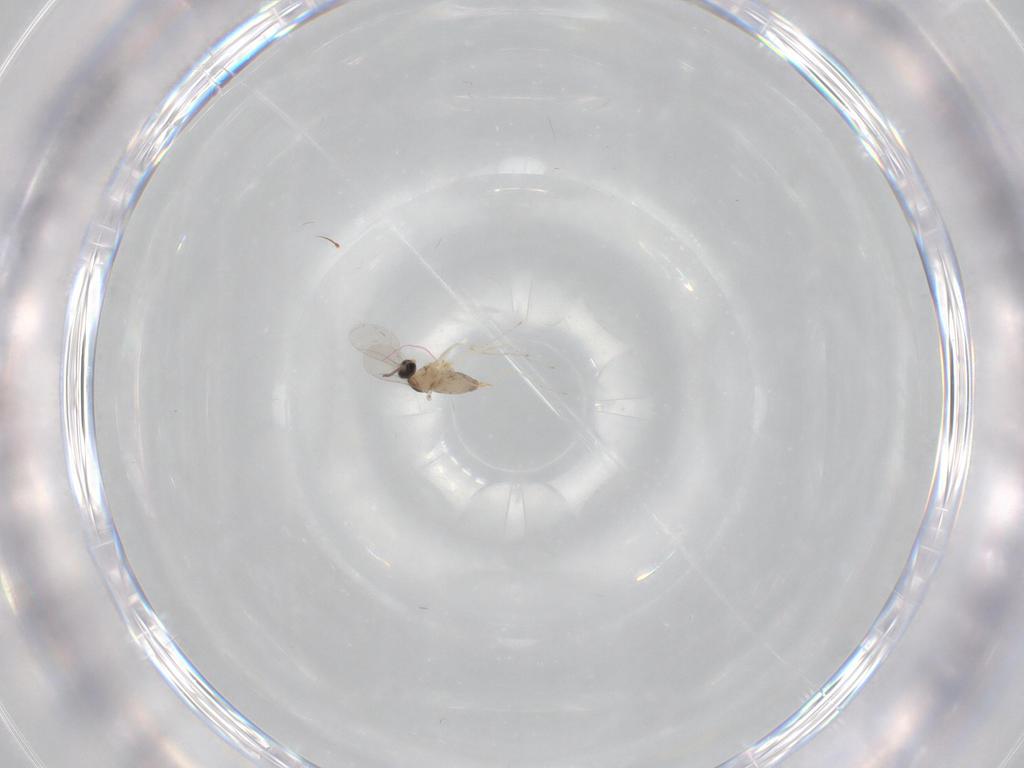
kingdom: Animalia
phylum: Arthropoda
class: Insecta
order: Diptera
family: Cecidomyiidae
